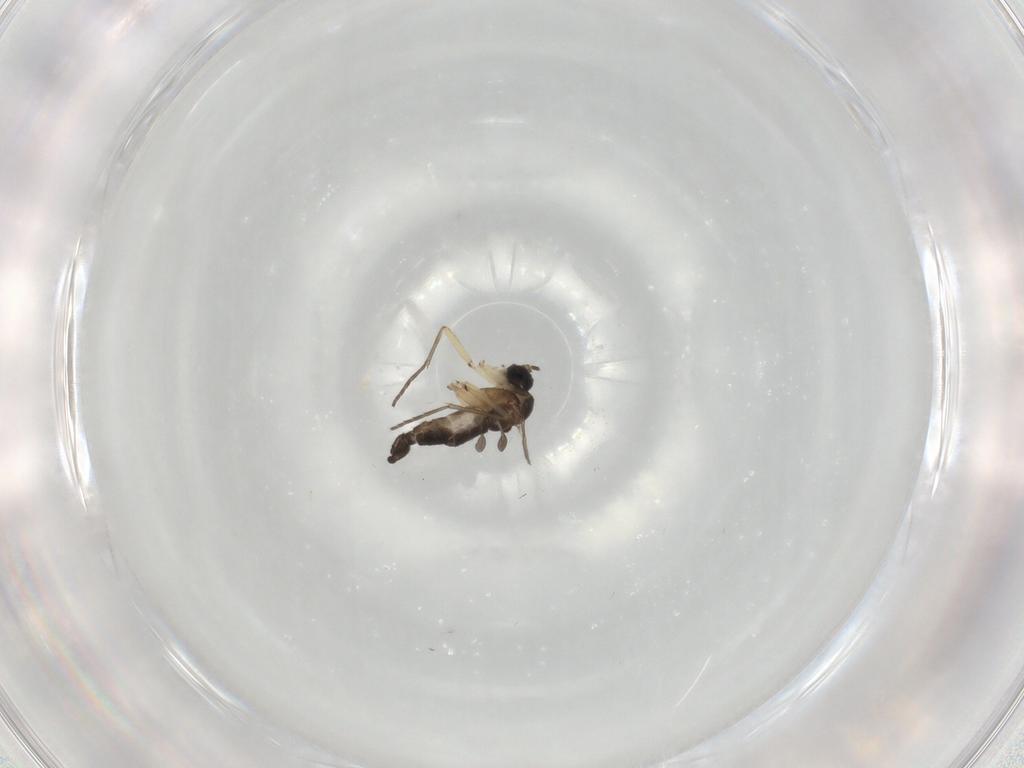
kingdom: Animalia
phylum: Arthropoda
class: Insecta
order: Diptera
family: Sciaridae
